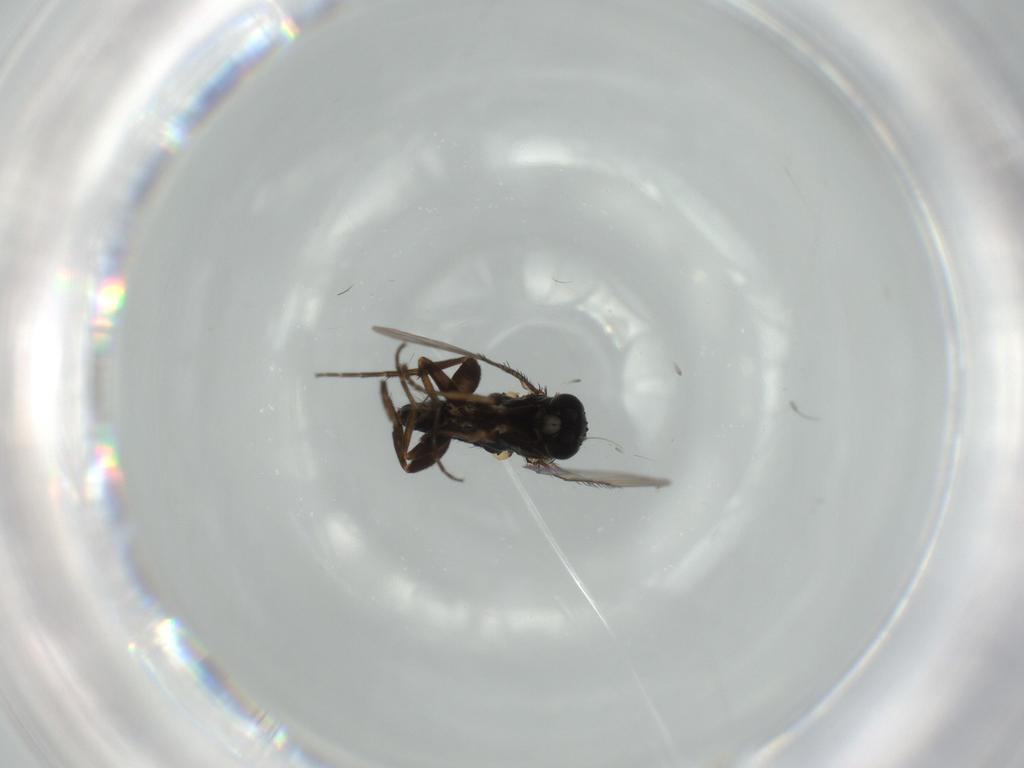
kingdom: Animalia
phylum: Arthropoda
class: Insecta
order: Diptera
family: Phoridae
